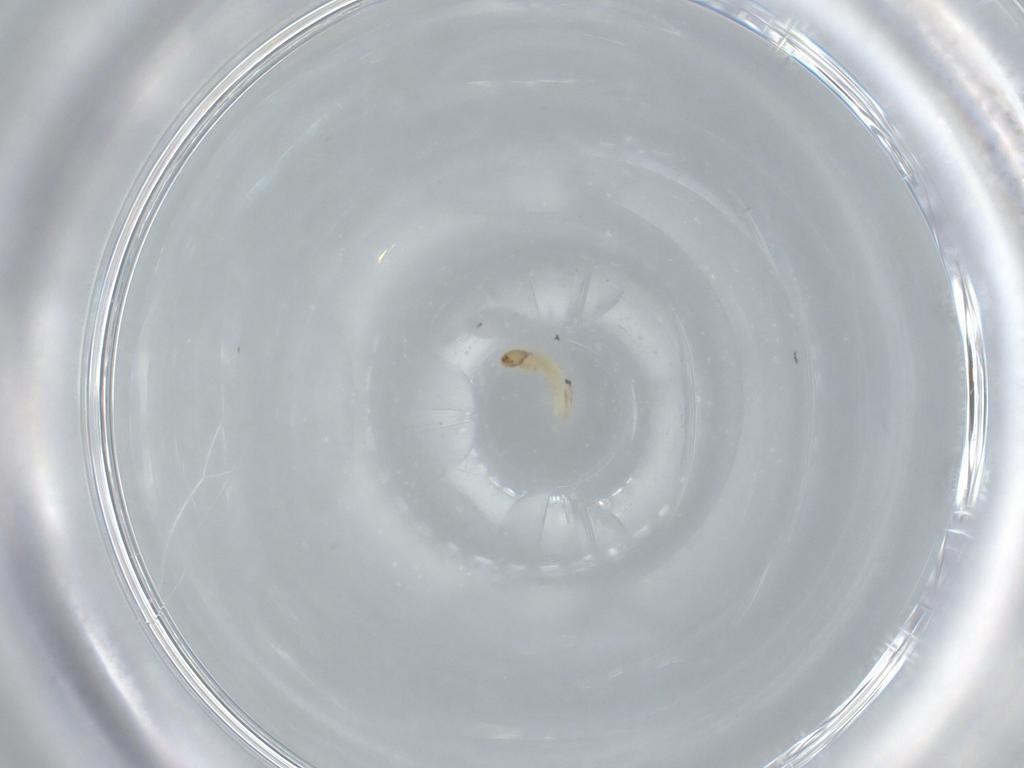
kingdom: Animalia
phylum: Arthropoda
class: Insecta
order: Lepidoptera
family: Tineidae
